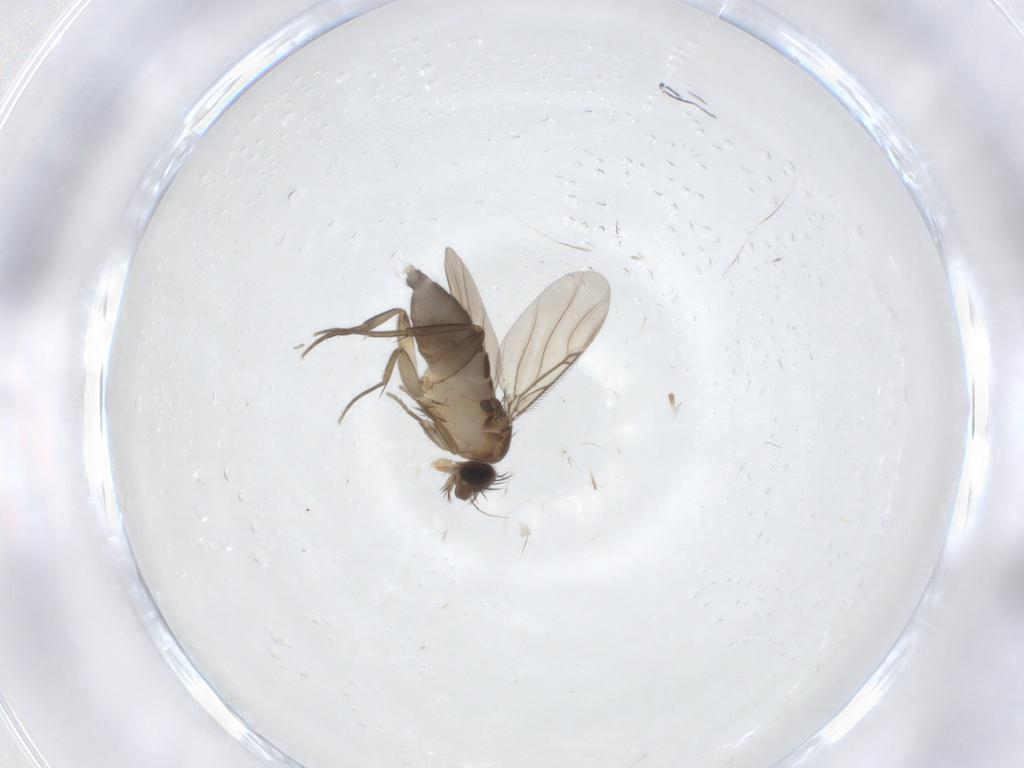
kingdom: Animalia
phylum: Arthropoda
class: Insecta
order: Diptera
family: Phoridae
